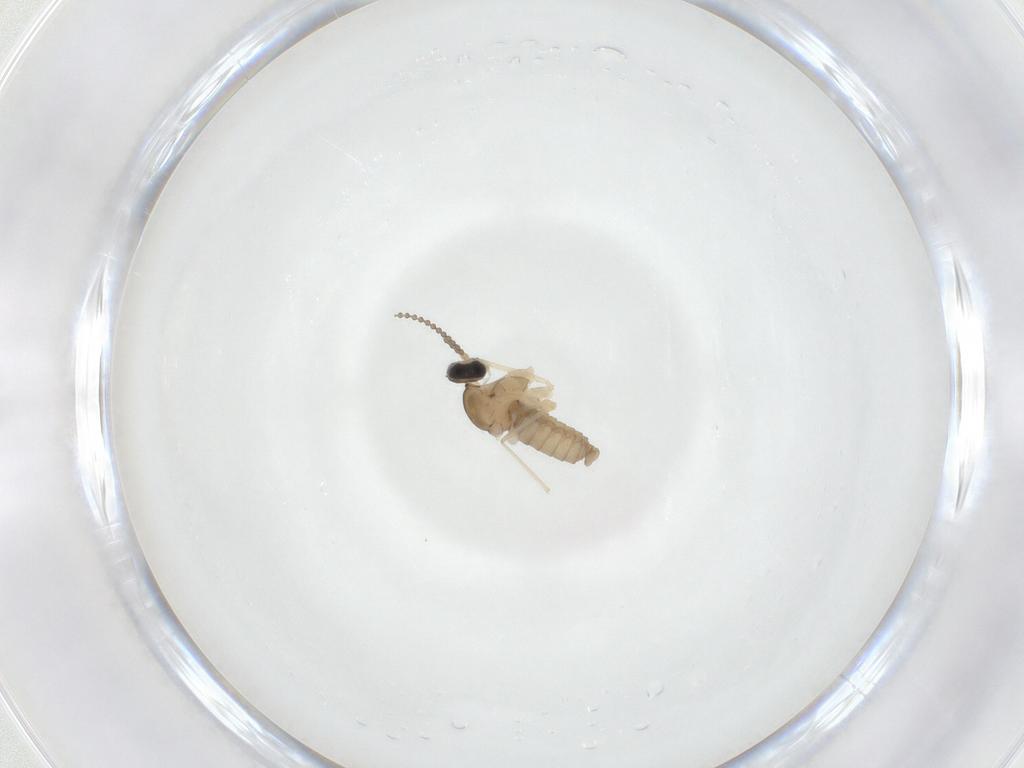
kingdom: Animalia
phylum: Arthropoda
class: Insecta
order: Diptera
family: Cecidomyiidae
